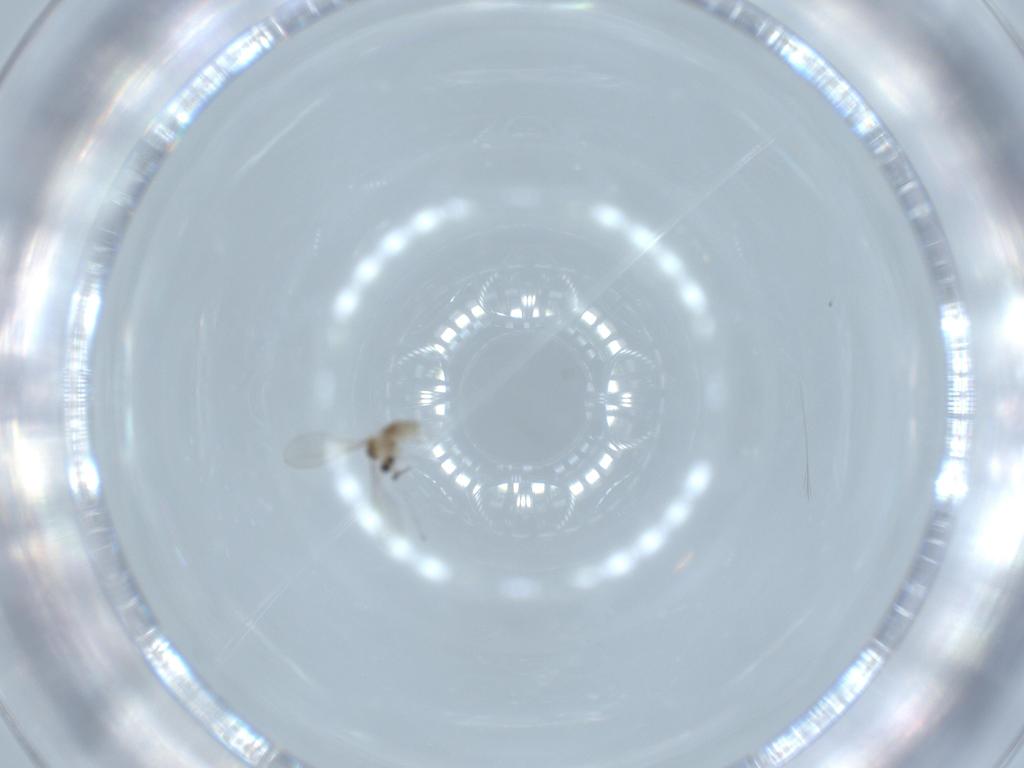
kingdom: Animalia
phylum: Arthropoda
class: Insecta
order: Diptera
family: Cecidomyiidae
